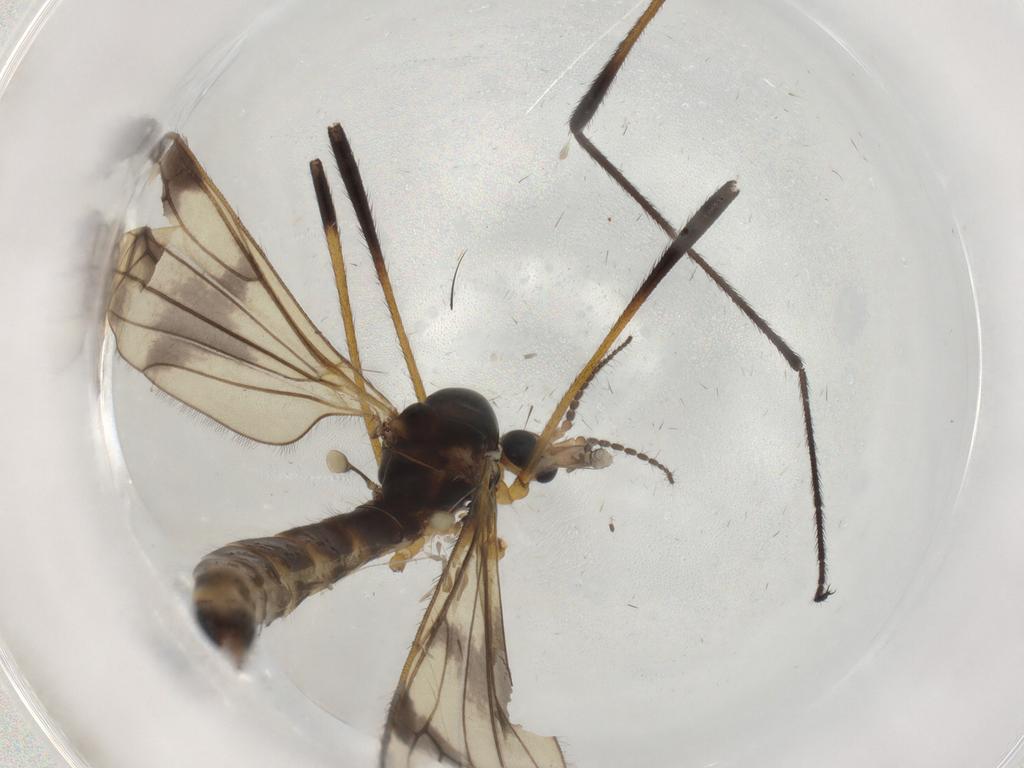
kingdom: Animalia
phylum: Arthropoda
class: Insecta
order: Diptera
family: Limoniidae
